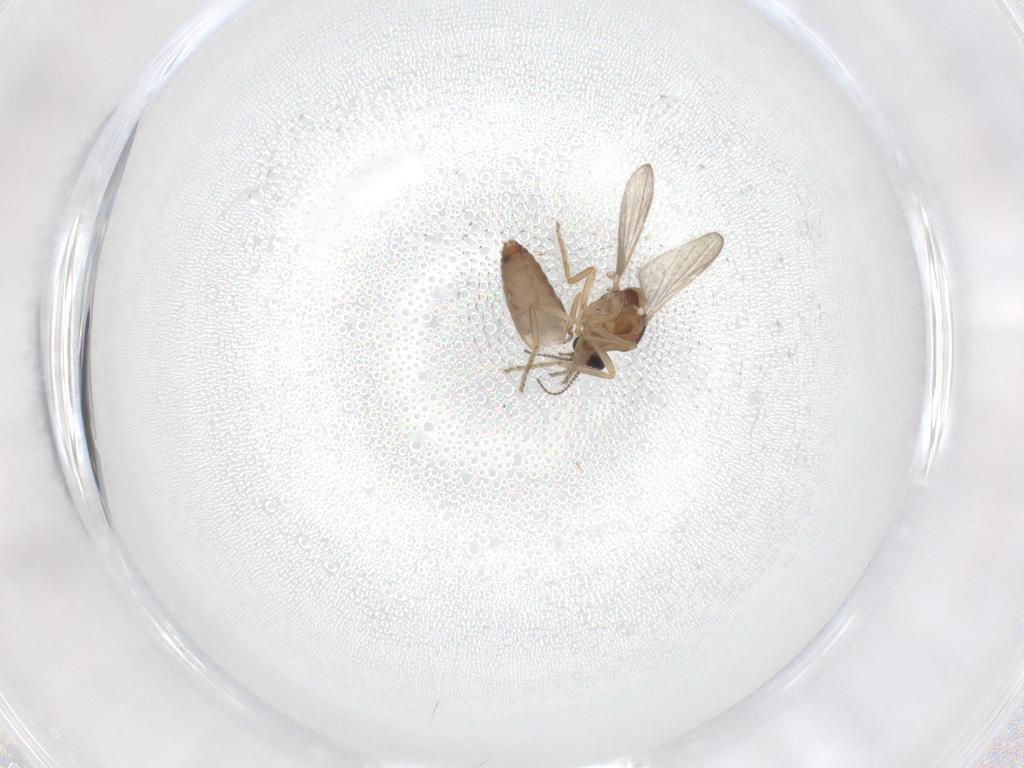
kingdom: Animalia
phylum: Arthropoda
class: Insecta
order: Diptera
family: Ceratopogonidae
